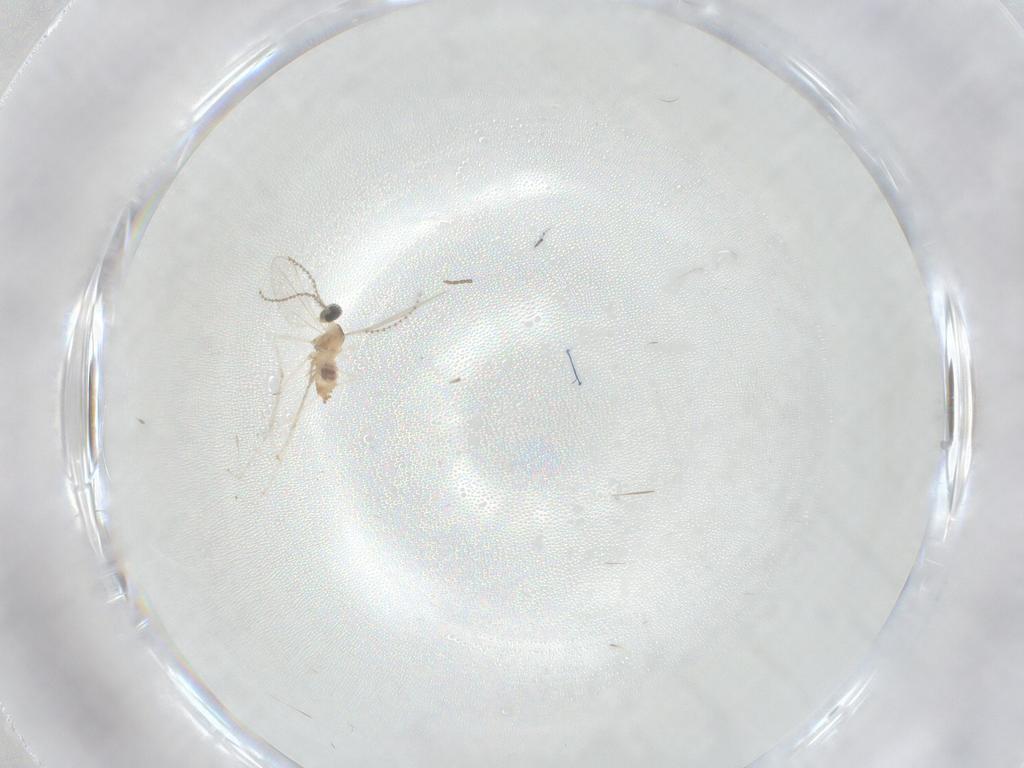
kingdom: Animalia
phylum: Arthropoda
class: Insecta
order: Diptera
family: Cecidomyiidae
